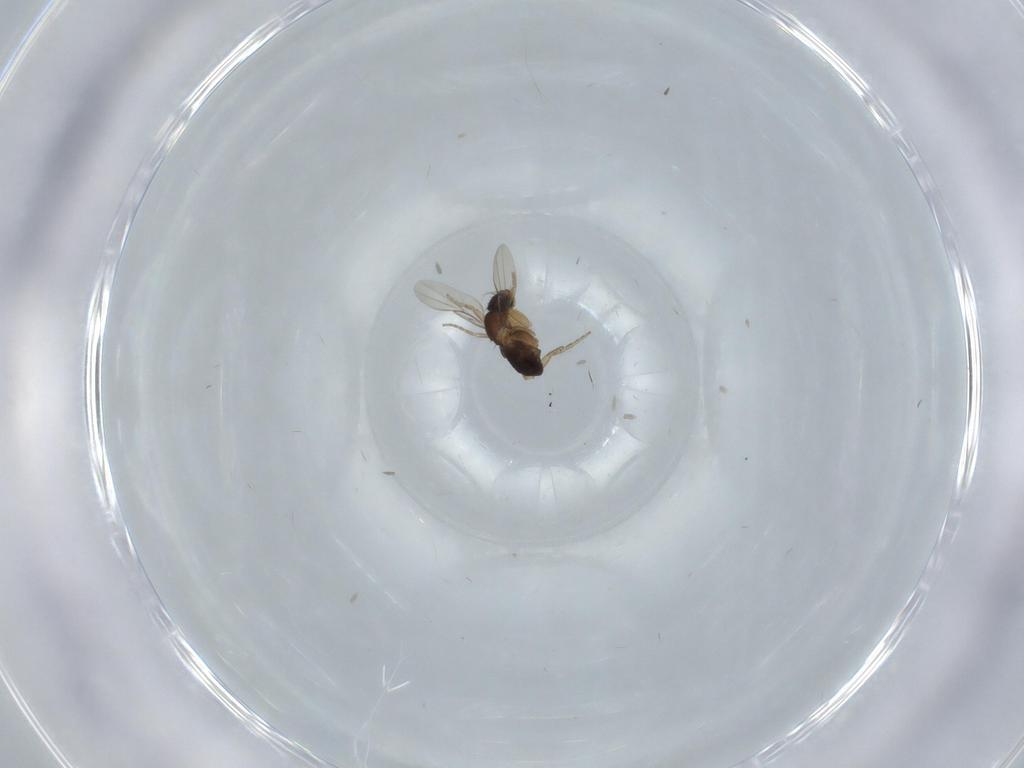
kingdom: Animalia
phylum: Arthropoda
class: Insecta
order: Diptera
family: Phoridae
